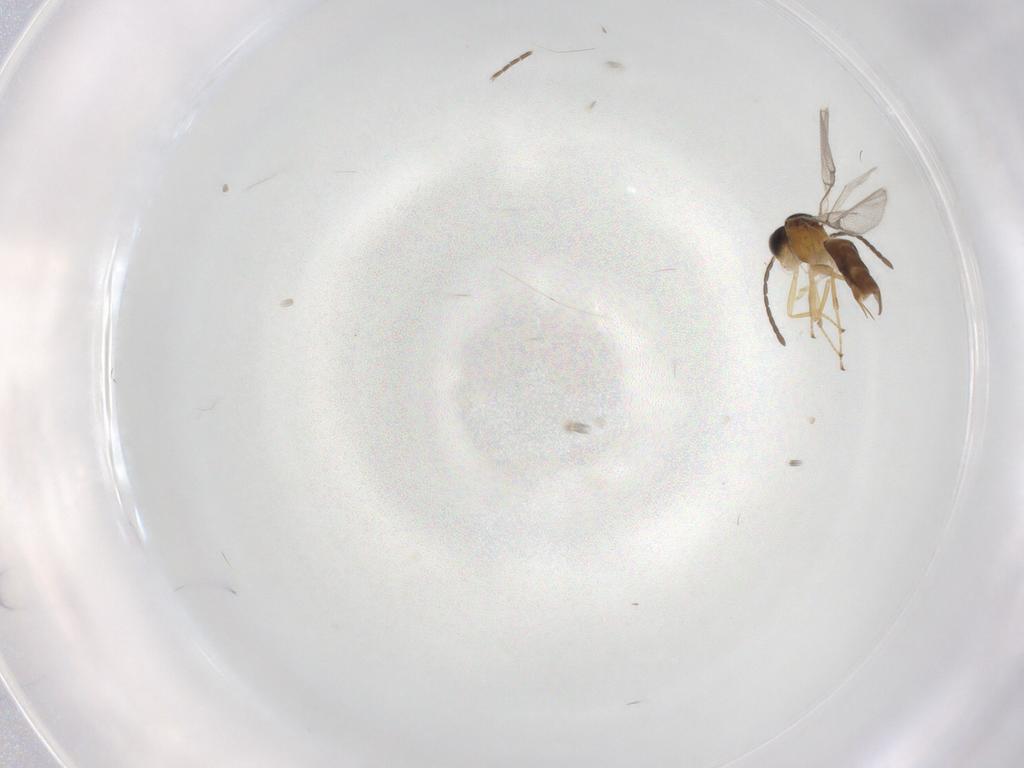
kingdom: Animalia
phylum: Arthropoda
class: Insecta
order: Hymenoptera
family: Braconidae
